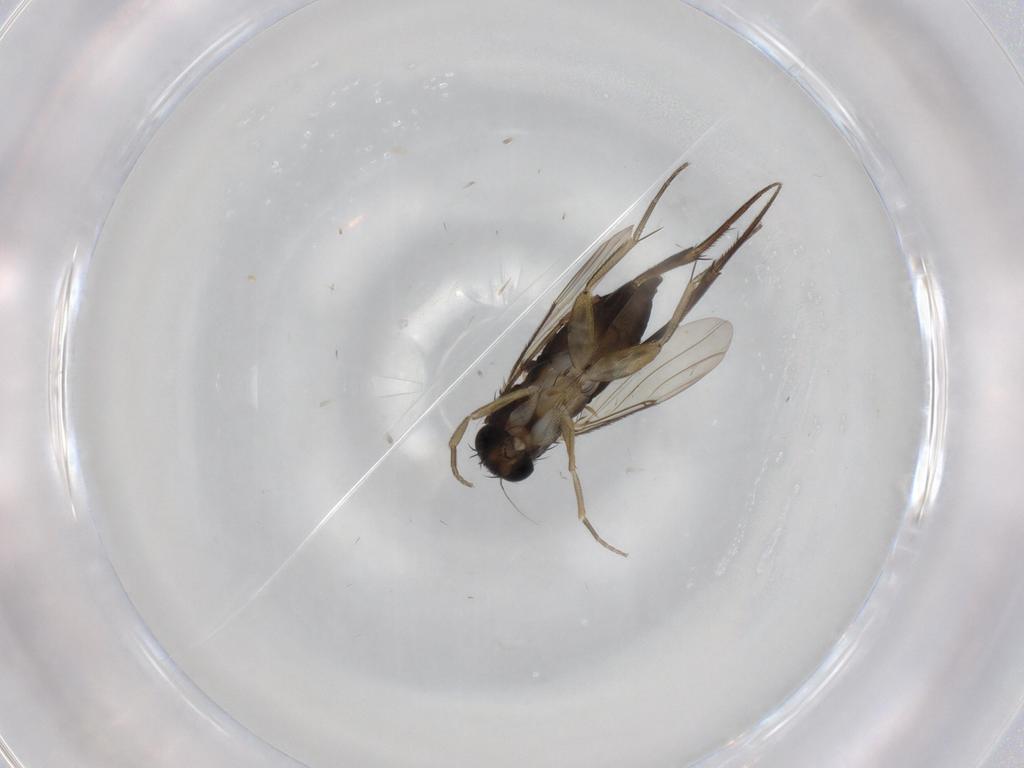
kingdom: Animalia
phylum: Arthropoda
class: Insecta
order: Diptera
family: Phoridae
